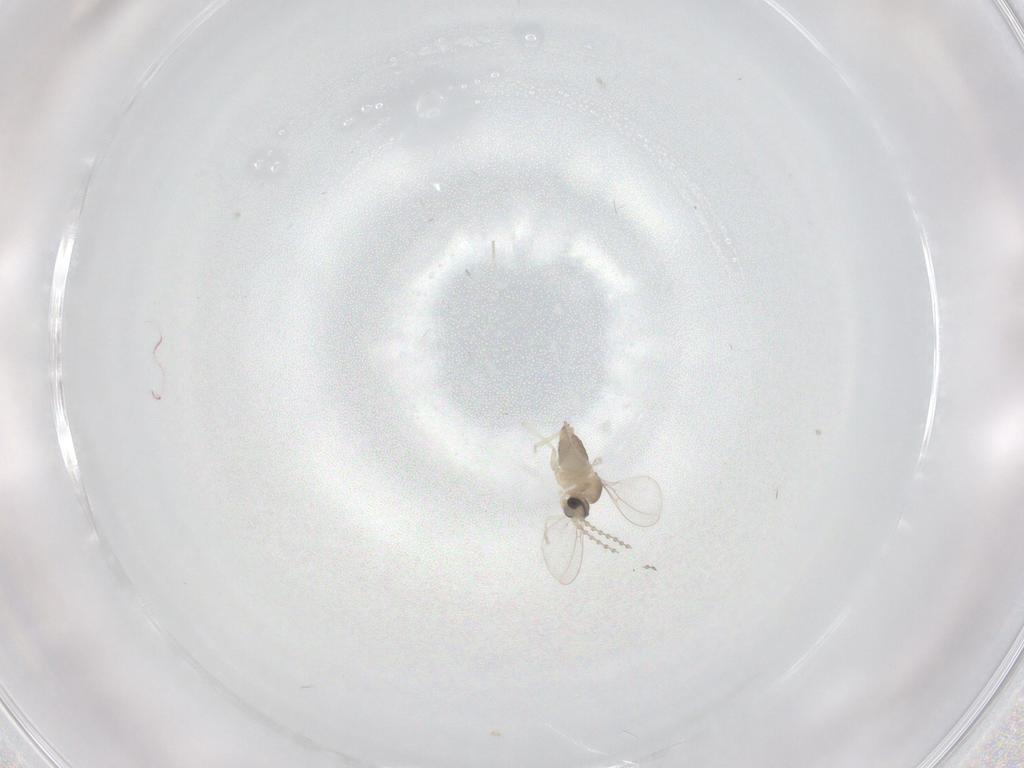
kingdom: Animalia
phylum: Arthropoda
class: Insecta
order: Diptera
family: Cecidomyiidae
